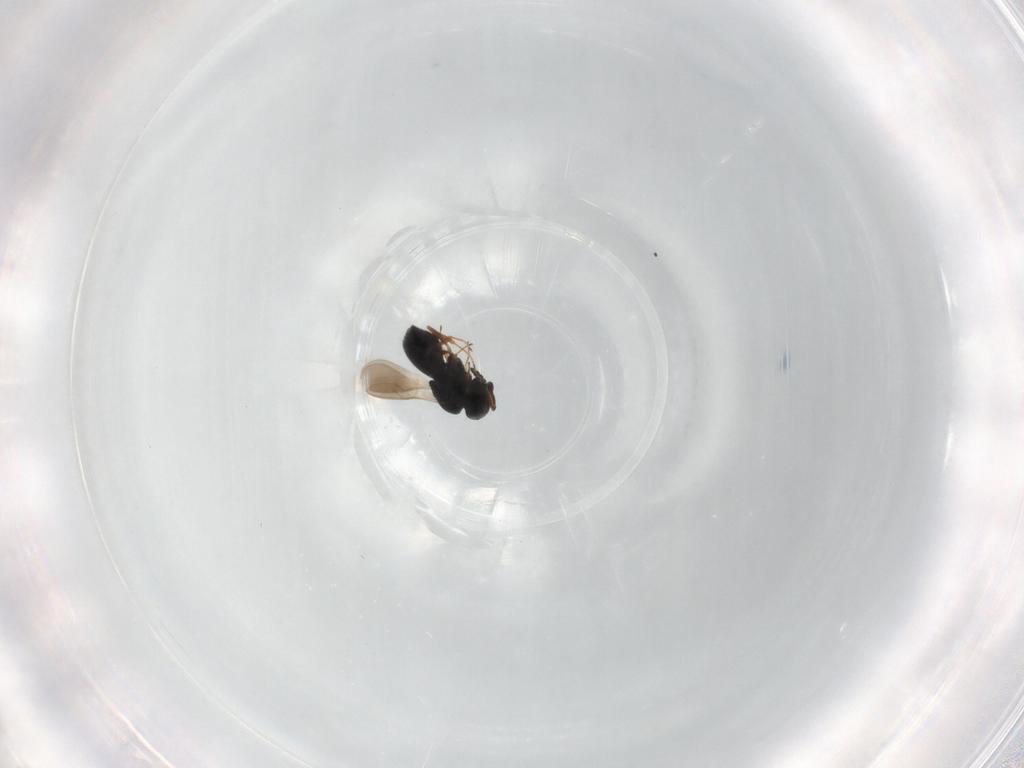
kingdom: Animalia
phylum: Arthropoda
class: Insecta
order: Hymenoptera
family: Scelionidae
